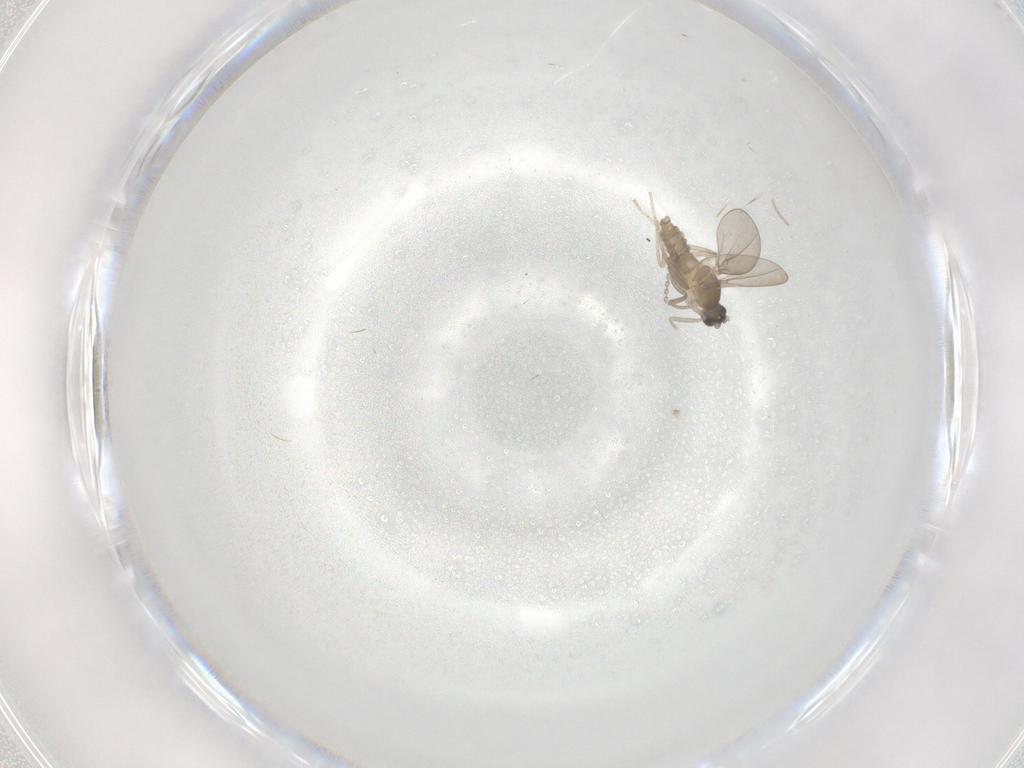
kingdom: Animalia
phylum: Arthropoda
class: Insecta
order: Diptera
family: Cecidomyiidae
